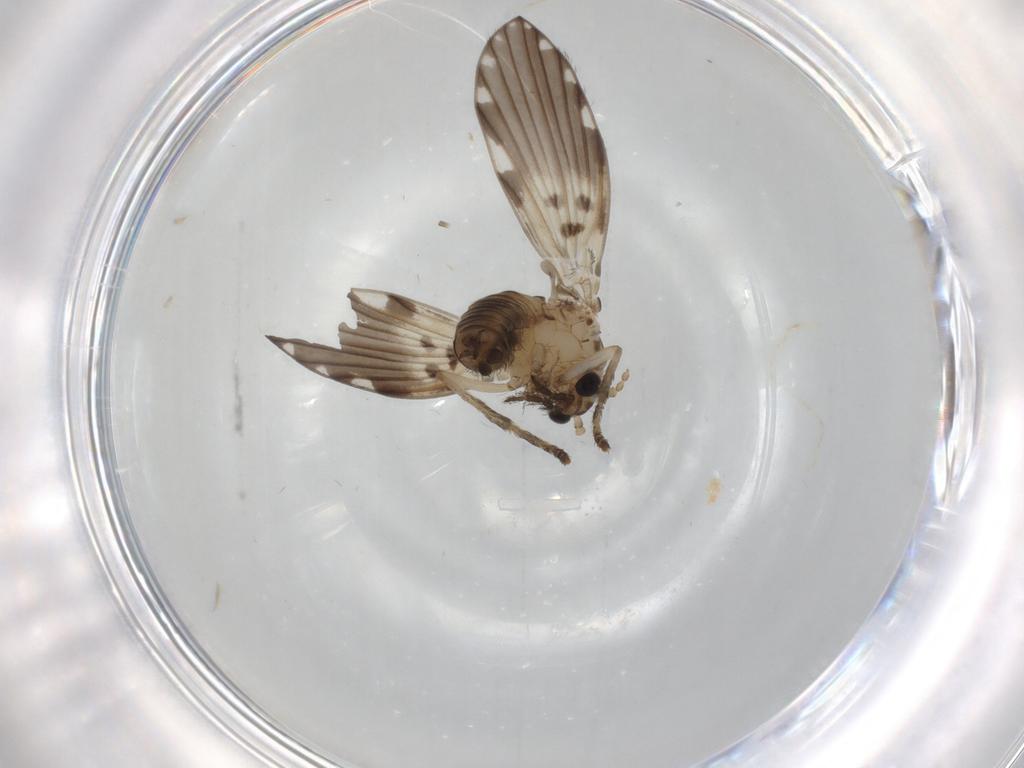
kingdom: Animalia
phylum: Arthropoda
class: Insecta
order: Diptera
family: Psychodidae
